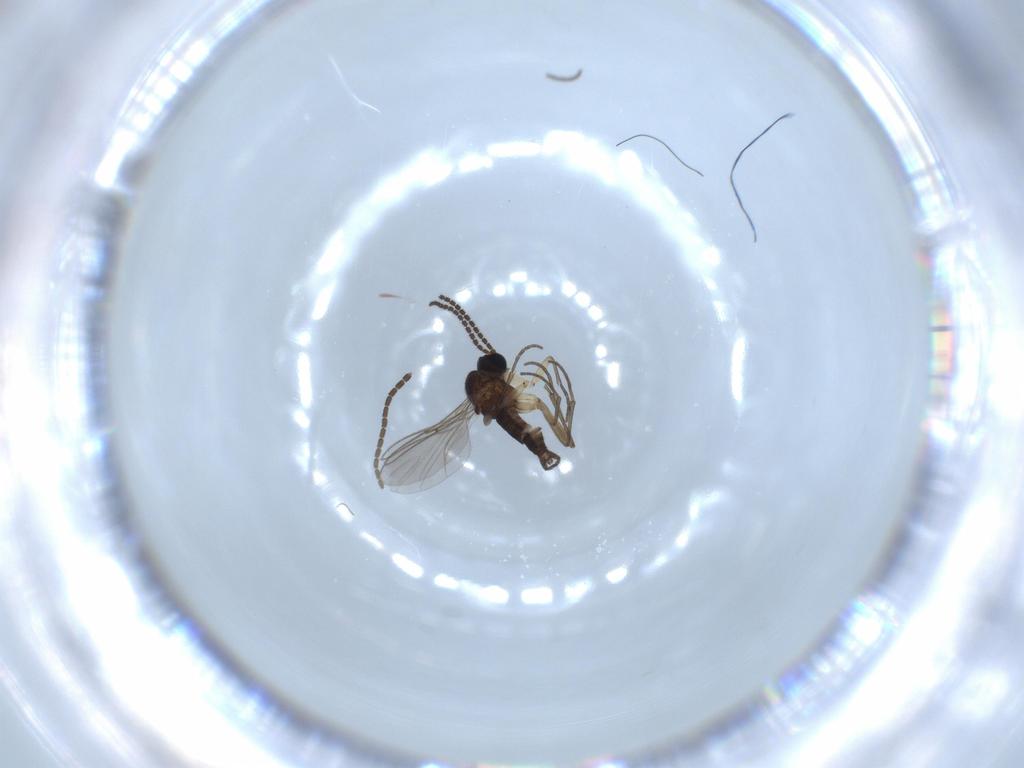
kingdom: Animalia
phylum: Arthropoda
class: Insecta
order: Diptera
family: Sciaridae
